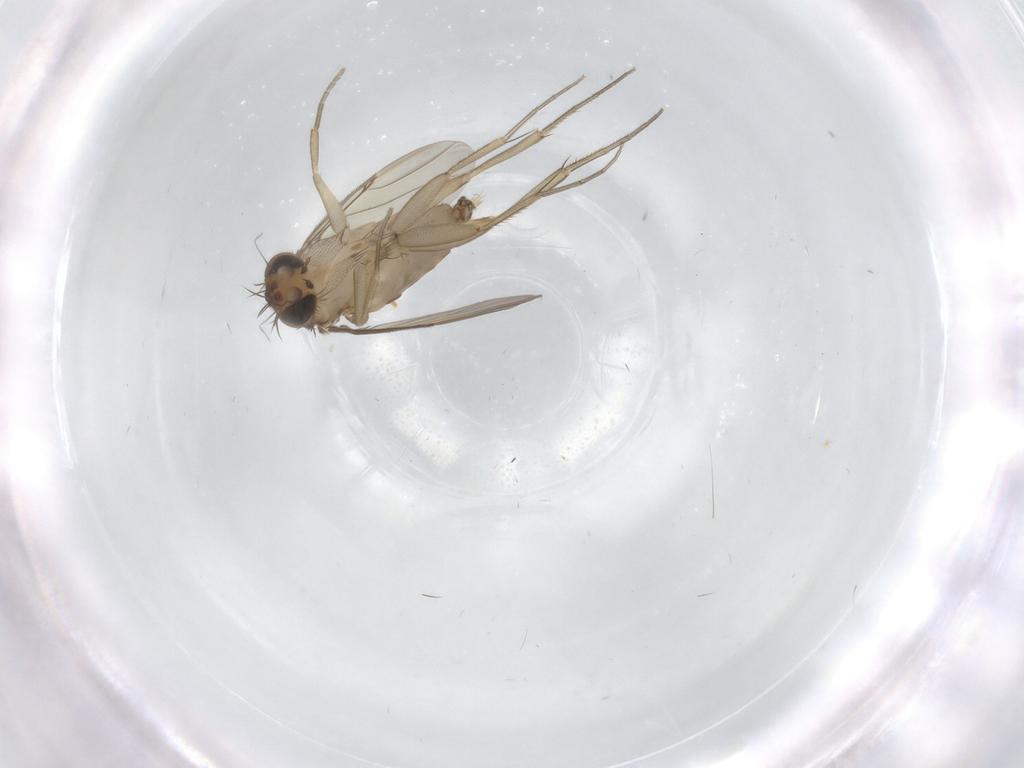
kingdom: Animalia
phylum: Arthropoda
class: Insecta
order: Diptera
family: Phoridae
